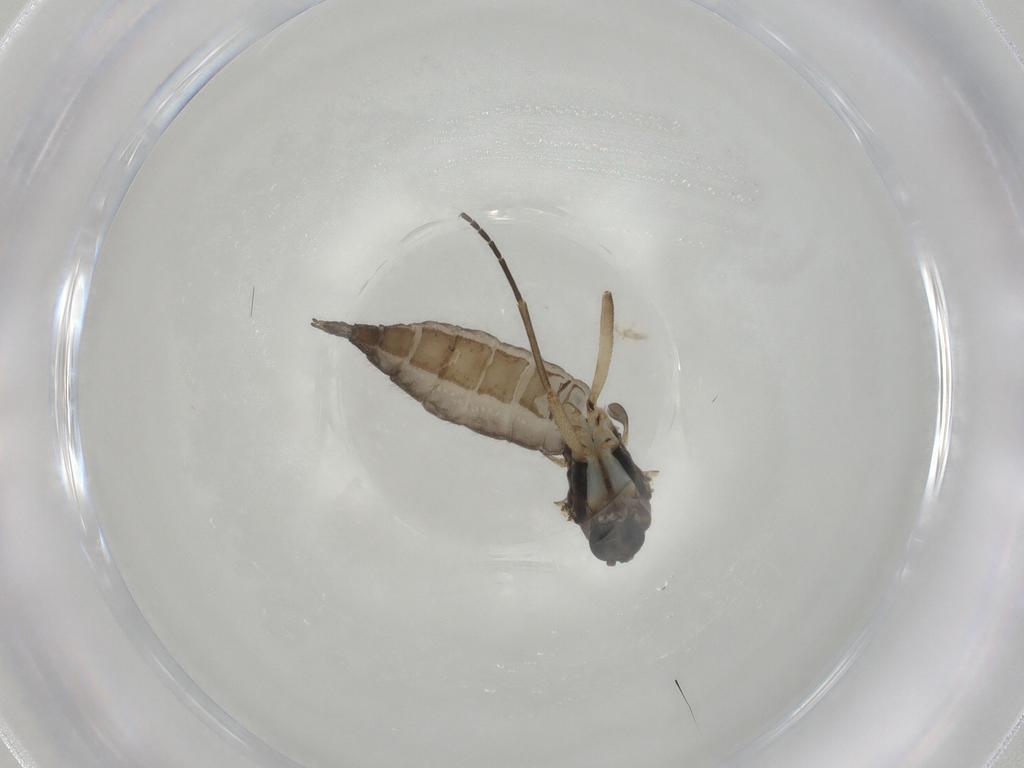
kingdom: Animalia
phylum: Arthropoda
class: Insecta
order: Diptera
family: Sciaridae
